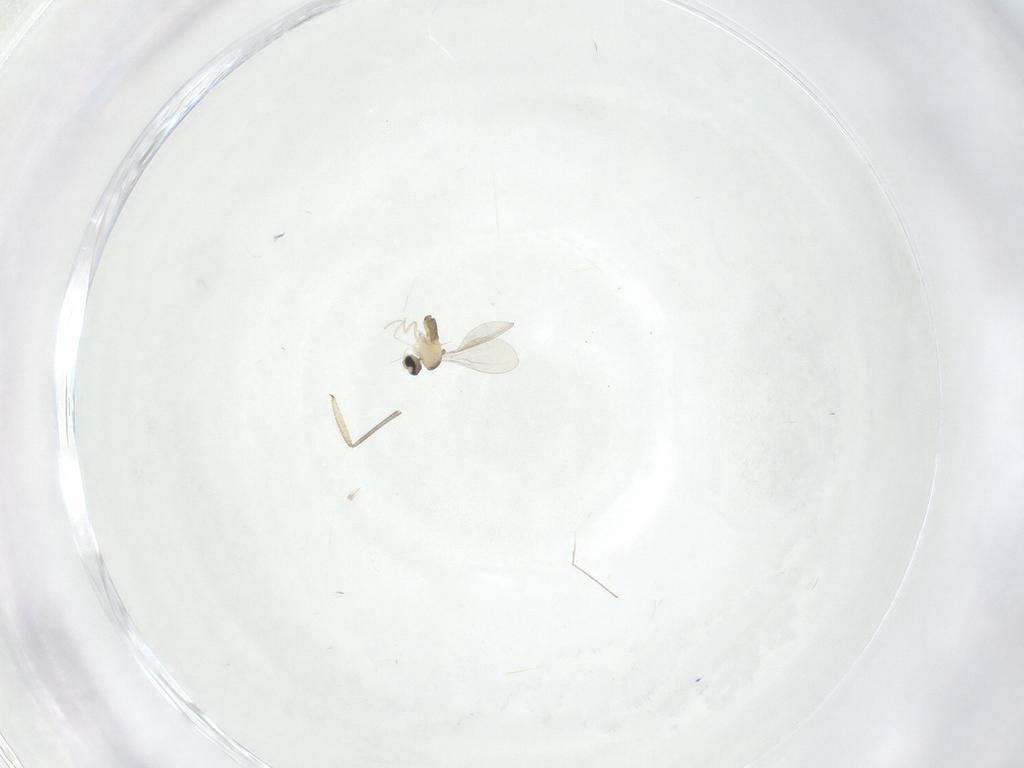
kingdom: Animalia
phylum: Arthropoda
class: Insecta
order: Diptera
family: Cecidomyiidae
